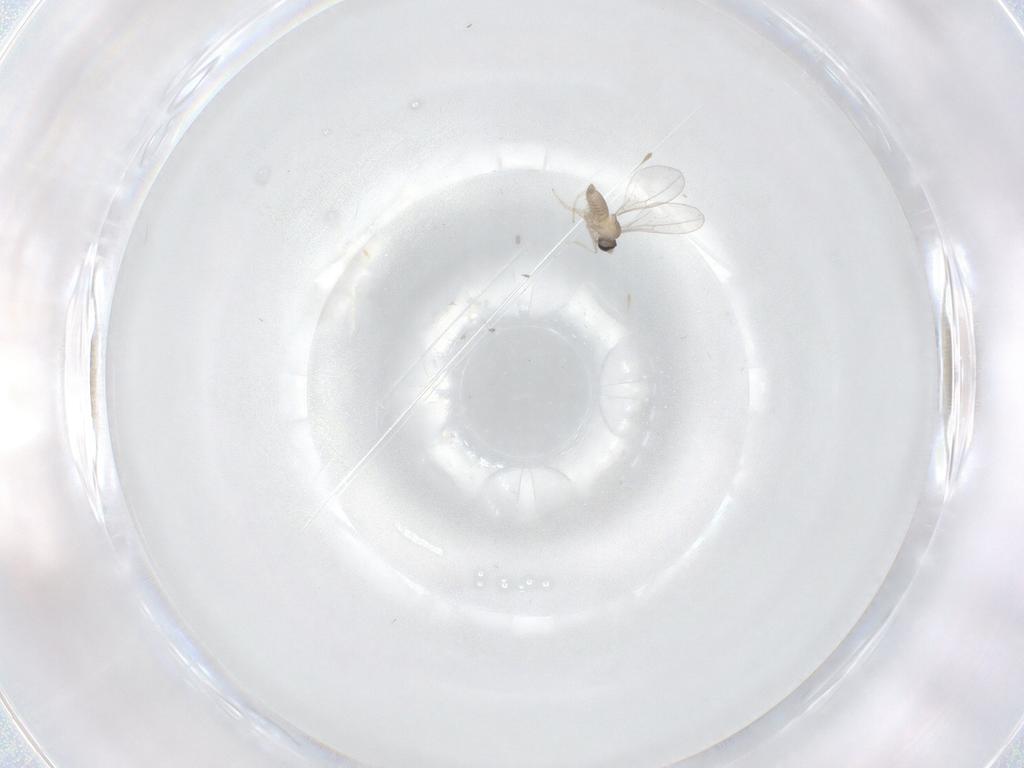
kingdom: Animalia
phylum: Arthropoda
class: Insecta
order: Diptera
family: Cecidomyiidae
